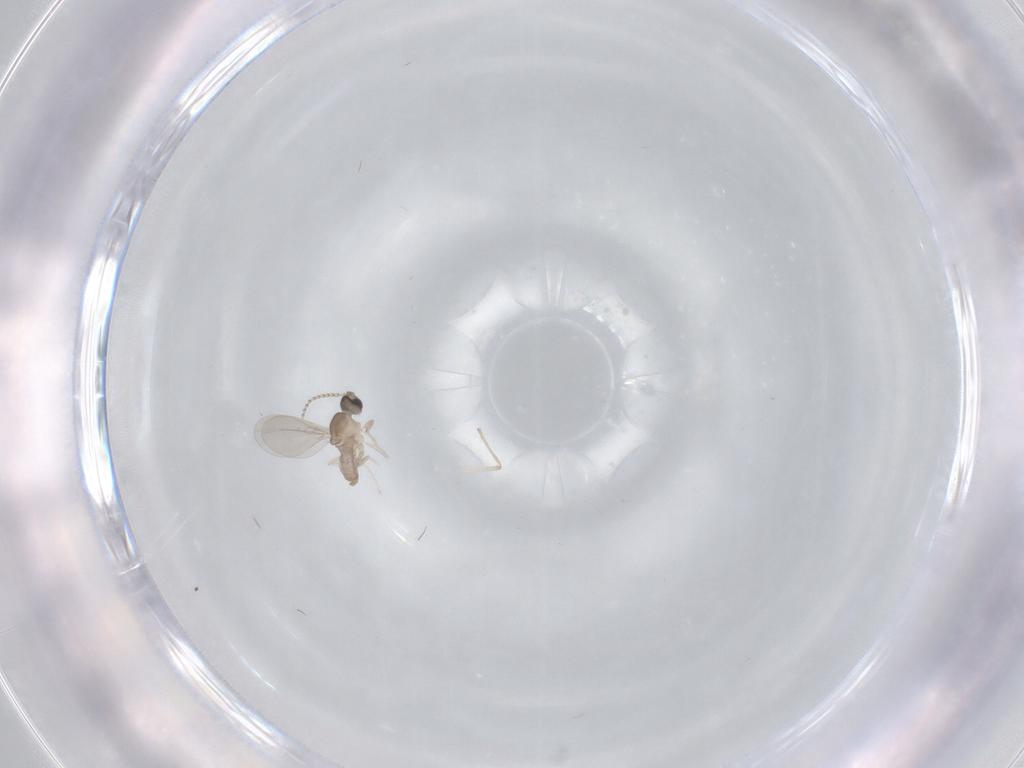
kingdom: Animalia
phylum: Arthropoda
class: Insecta
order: Diptera
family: Cecidomyiidae
